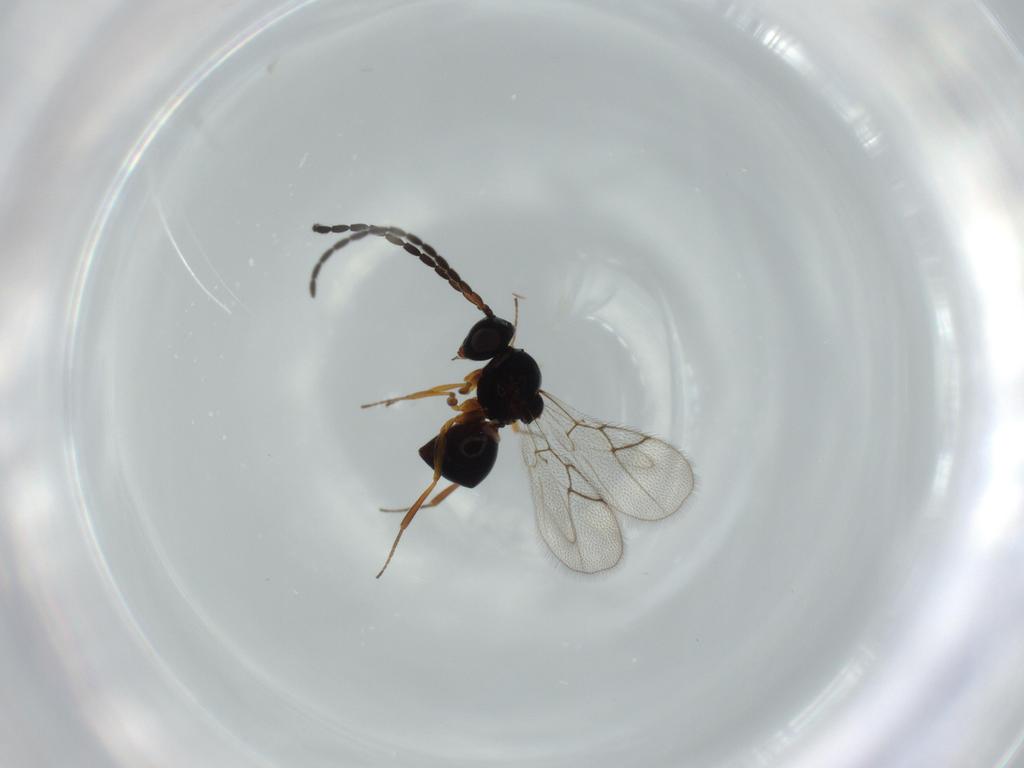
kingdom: Animalia
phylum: Arthropoda
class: Insecta
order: Hymenoptera
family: Figitidae
